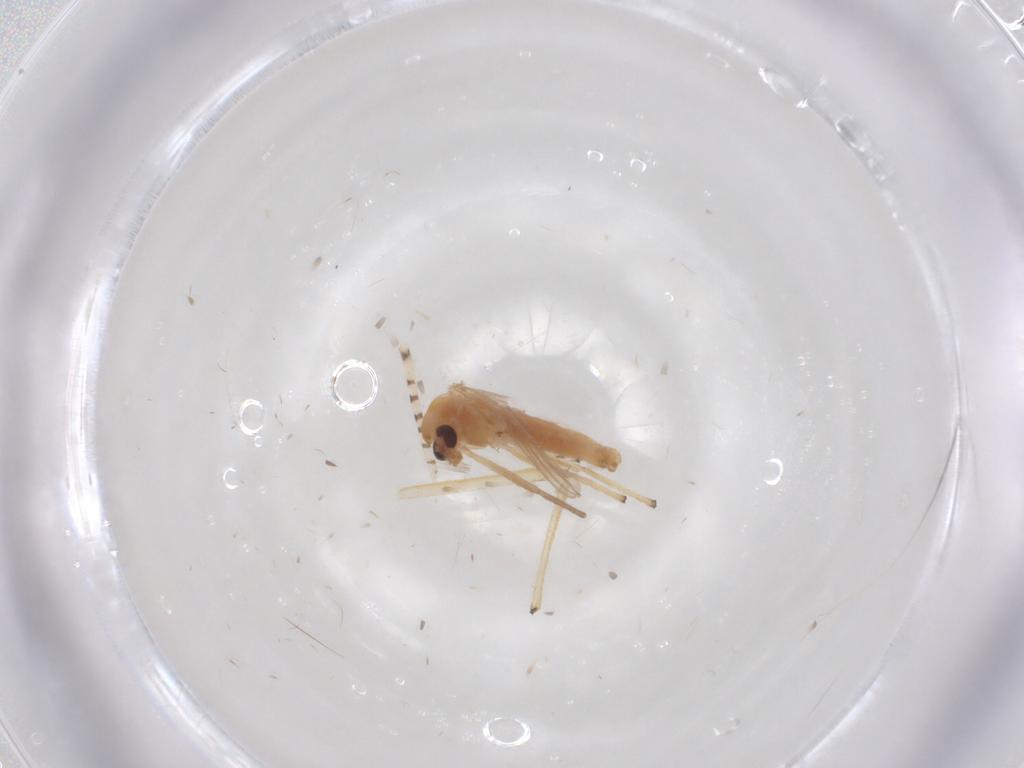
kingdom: Animalia
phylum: Arthropoda
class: Insecta
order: Diptera
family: Chironomidae
